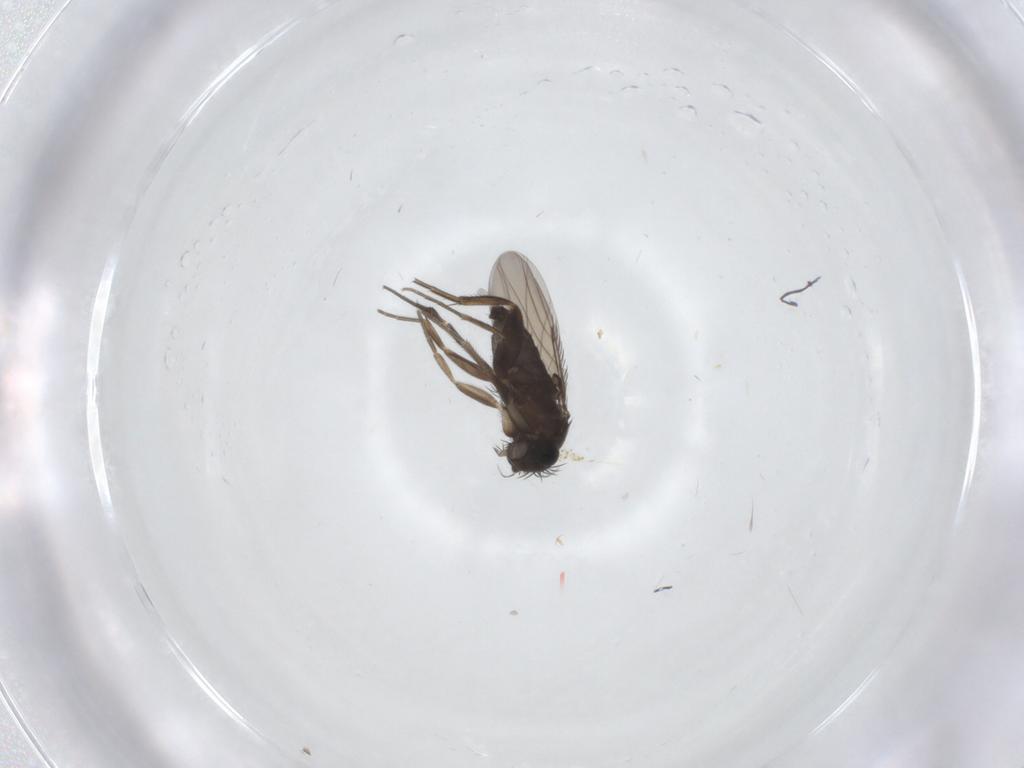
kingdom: Animalia
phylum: Arthropoda
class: Insecta
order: Diptera
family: Phoridae
